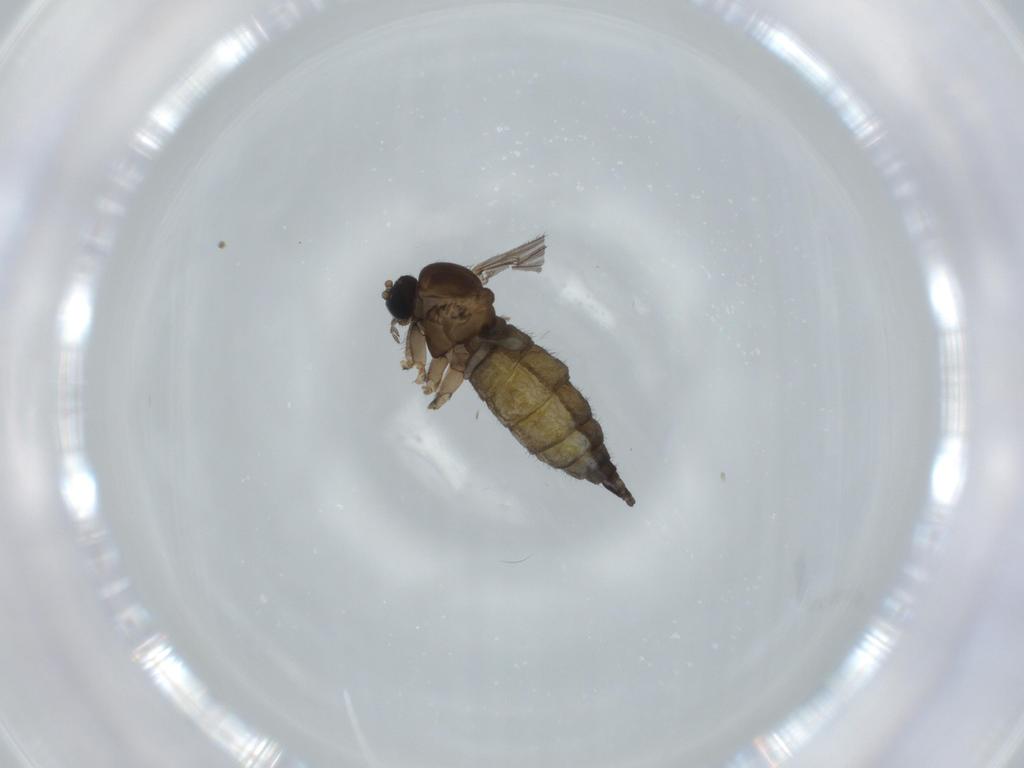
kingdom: Animalia
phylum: Arthropoda
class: Insecta
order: Diptera
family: Sciaridae
